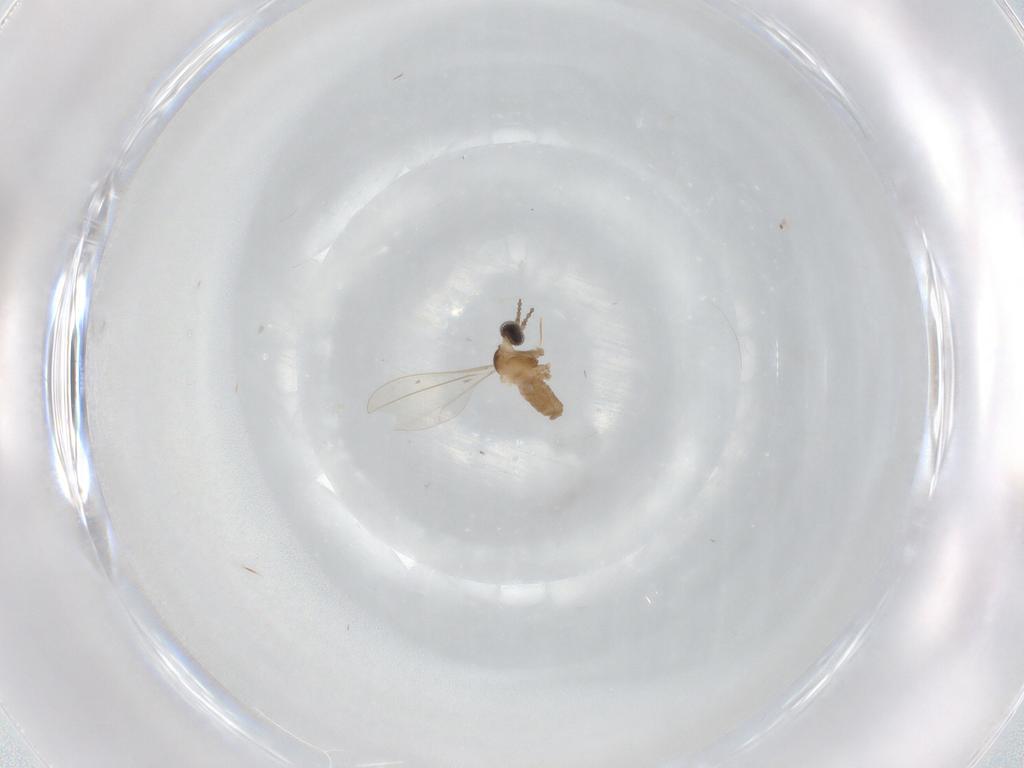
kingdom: Animalia
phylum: Arthropoda
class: Insecta
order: Diptera
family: Cecidomyiidae
